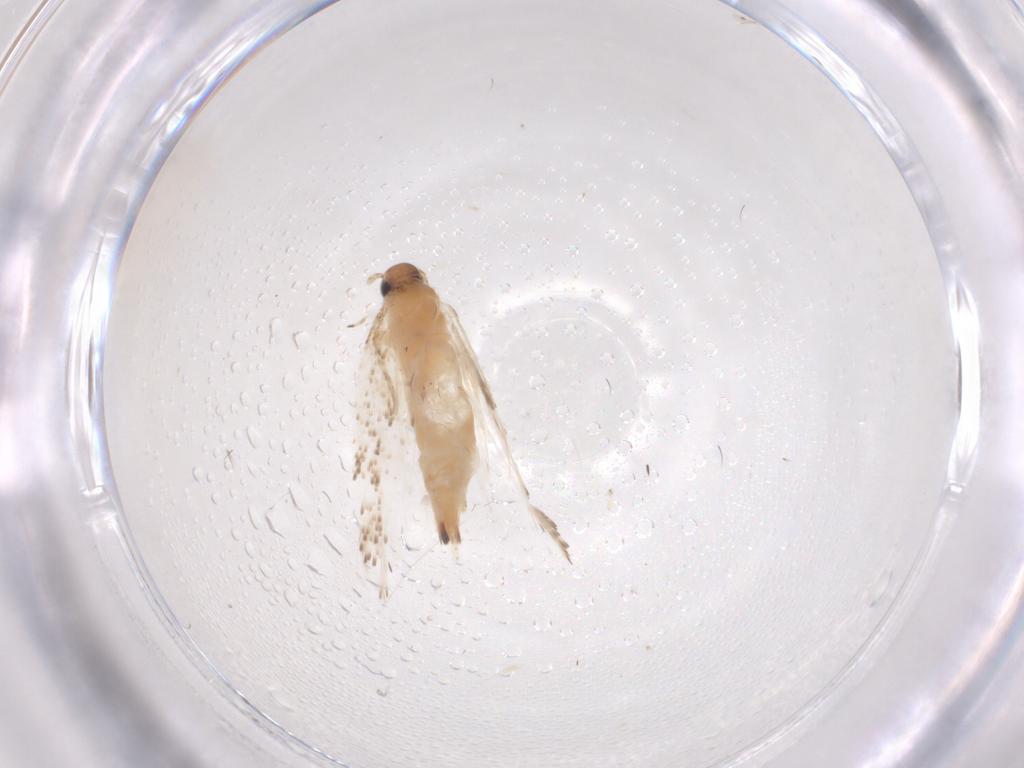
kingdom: Animalia
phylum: Arthropoda
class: Insecta
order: Lepidoptera
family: Gelechiidae
